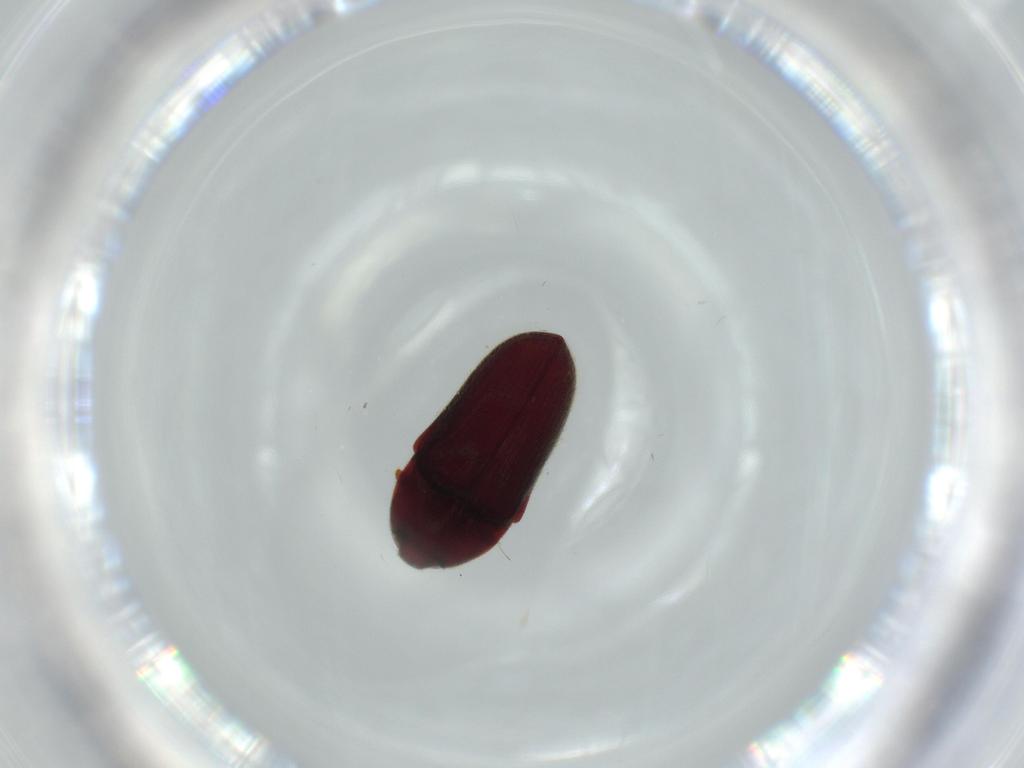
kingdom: Animalia
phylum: Arthropoda
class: Insecta
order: Coleoptera
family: Throscidae
